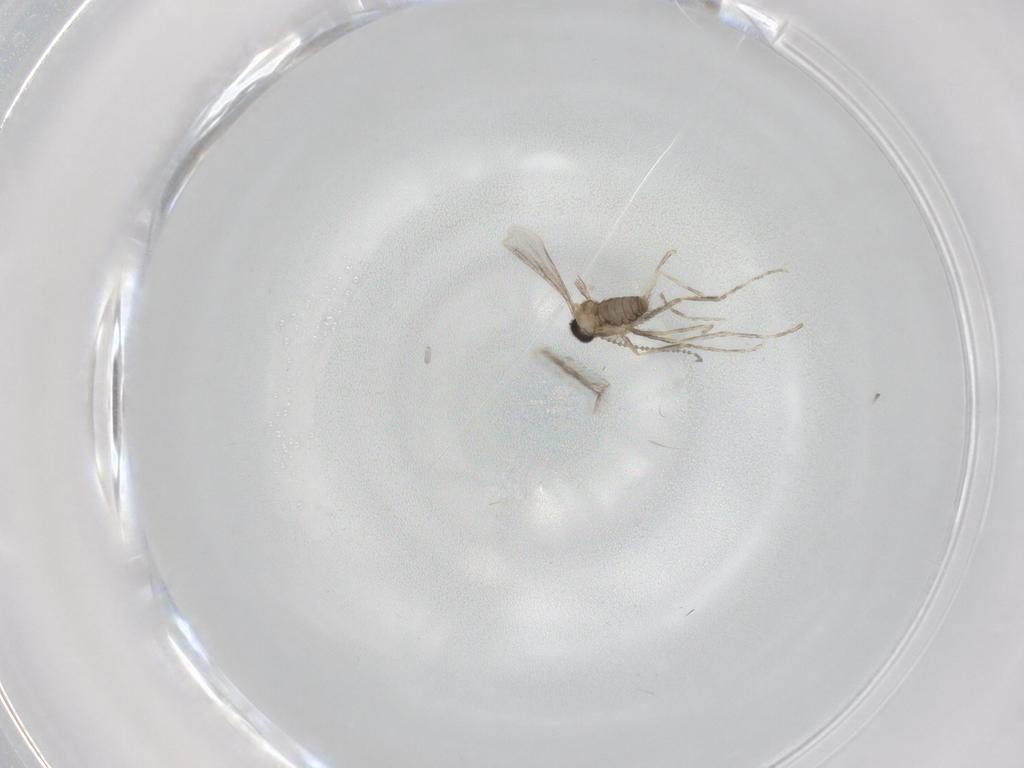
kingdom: Animalia
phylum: Arthropoda
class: Insecta
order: Diptera
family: Cecidomyiidae
